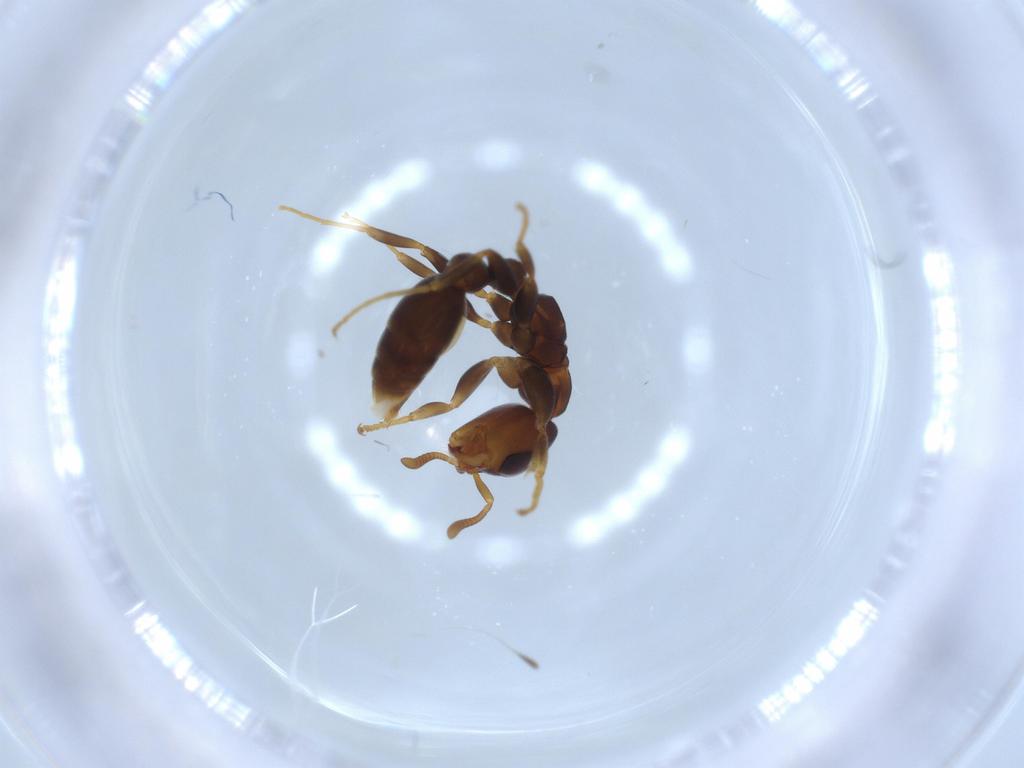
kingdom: Animalia
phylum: Arthropoda
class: Insecta
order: Hymenoptera
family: Formicidae
